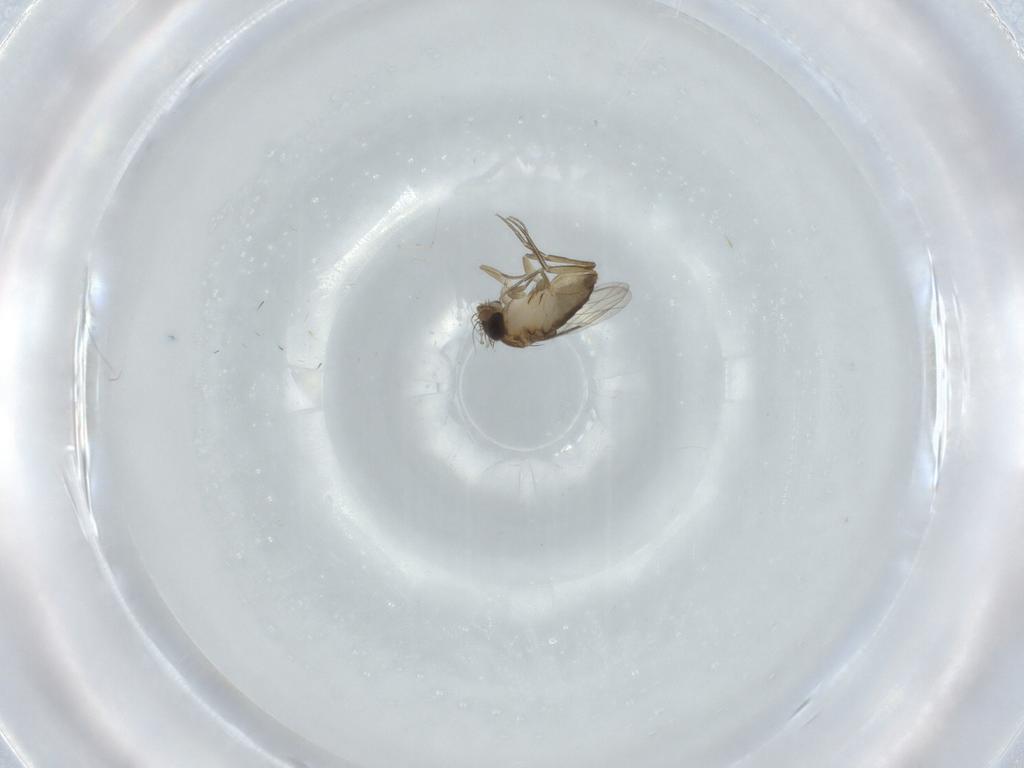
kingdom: Animalia
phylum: Arthropoda
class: Insecta
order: Diptera
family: Phoridae
